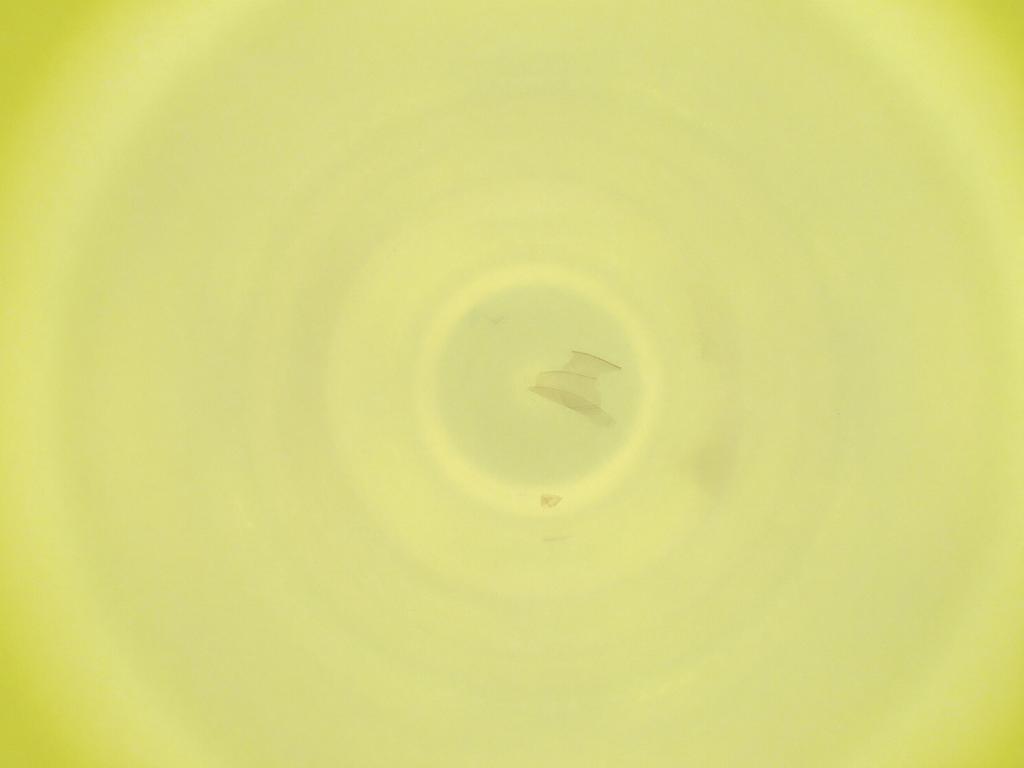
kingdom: Animalia
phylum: Arthropoda
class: Insecta
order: Diptera
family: Cecidomyiidae
